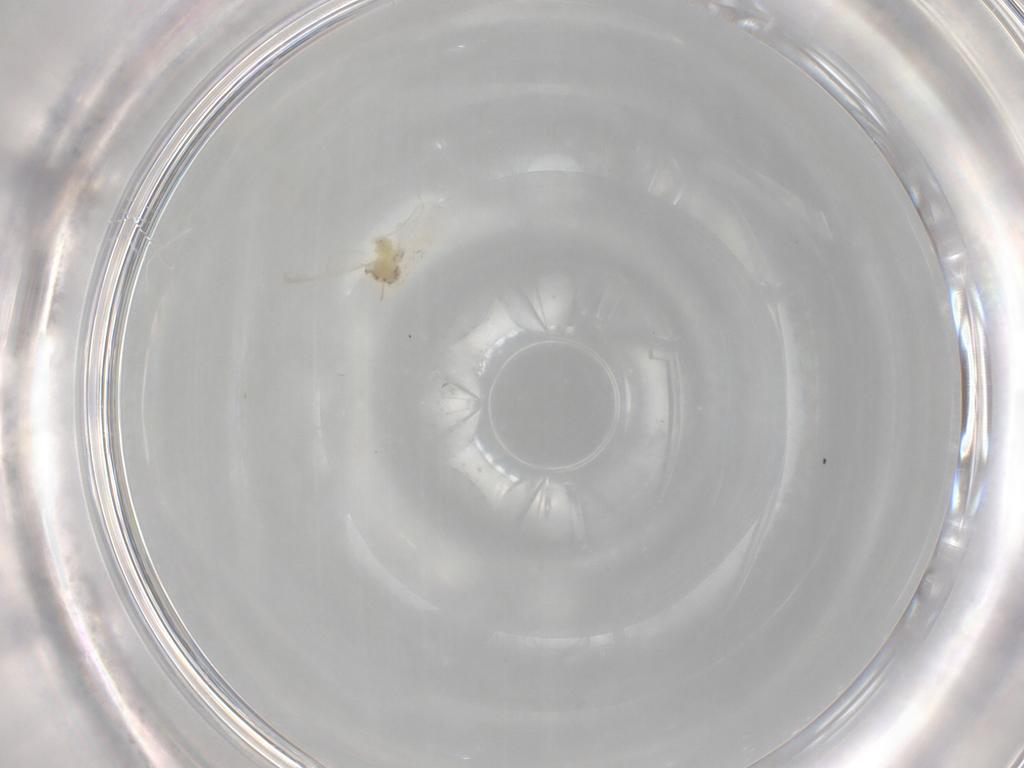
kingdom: Animalia
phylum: Arthropoda
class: Insecta
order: Hemiptera
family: Aleyrodidae
